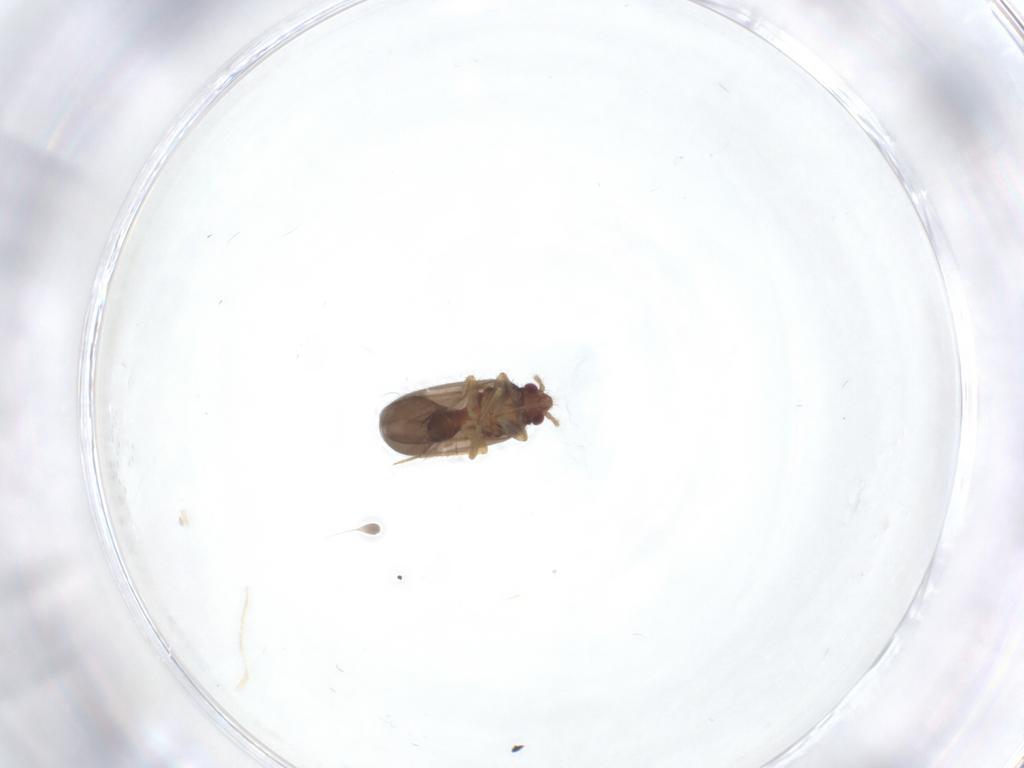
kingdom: Animalia
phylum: Arthropoda
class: Insecta
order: Hemiptera
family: Ceratocombidae
